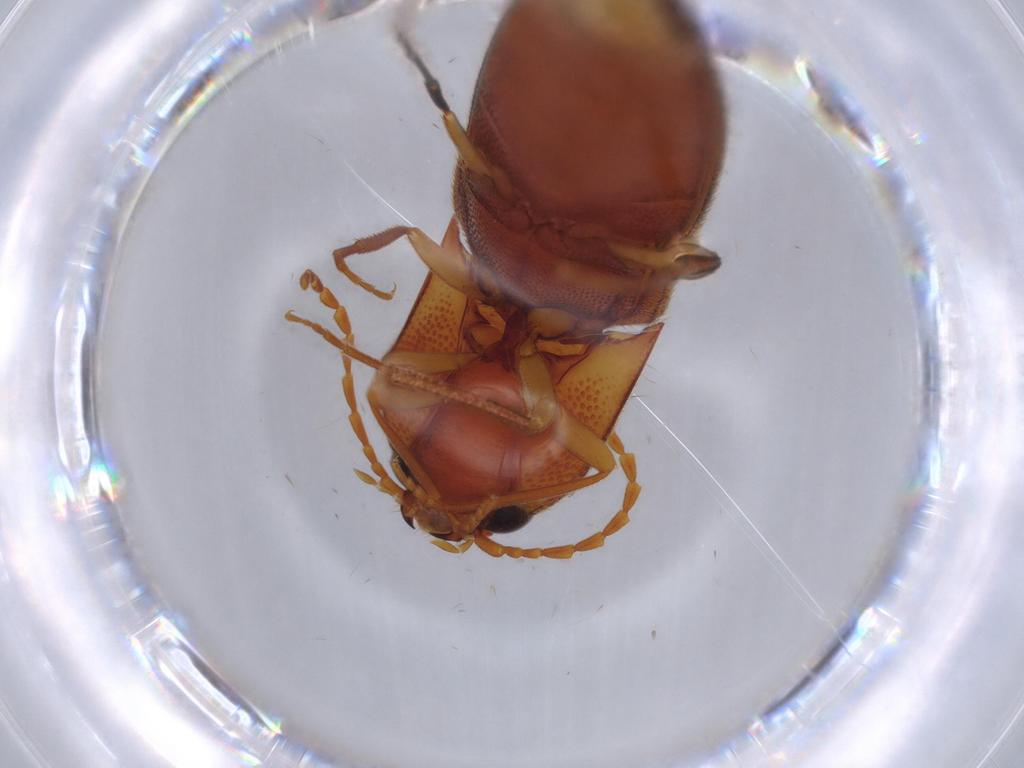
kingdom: Animalia
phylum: Arthropoda
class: Insecta
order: Coleoptera
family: Elateridae
